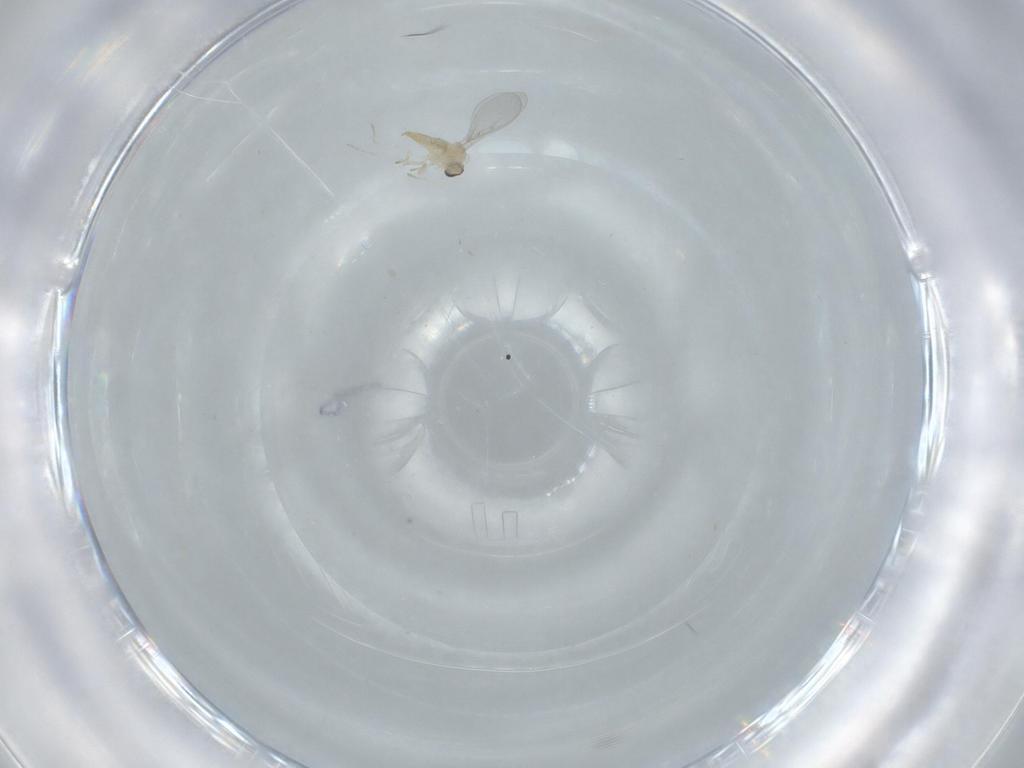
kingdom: Animalia
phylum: Arthropoda
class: Insecta
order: Diptera
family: Cecidomyiidae
